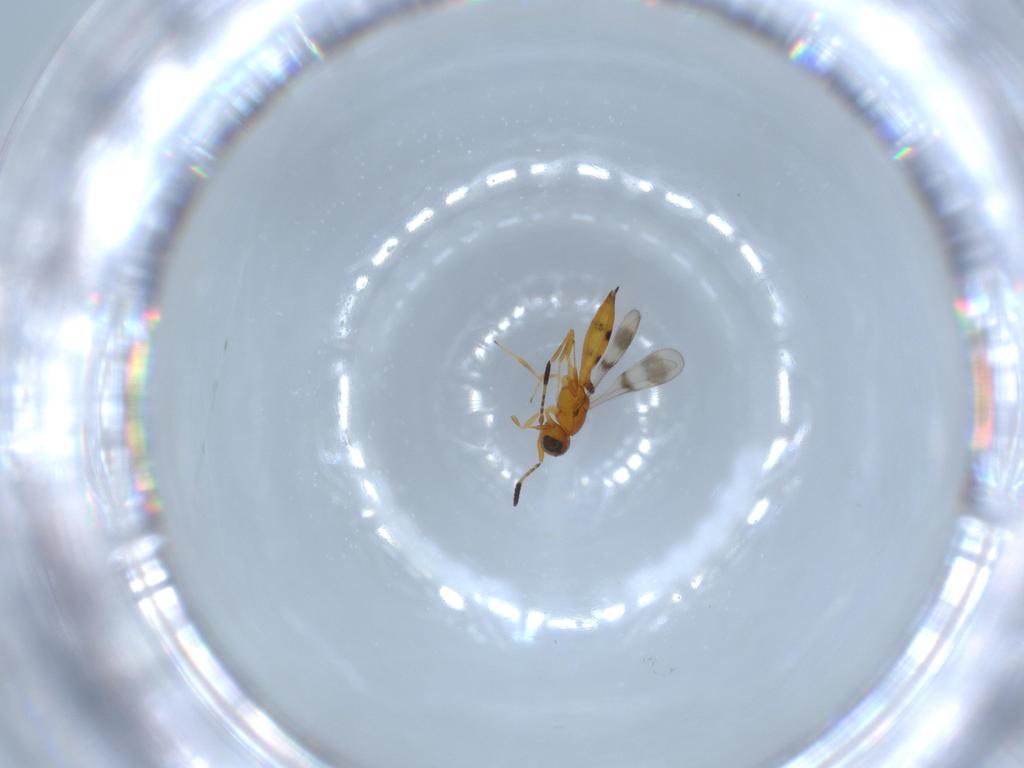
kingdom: Animalia
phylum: Arthropoda
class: Insecta
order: Hymenoptera
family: Scelionidae
